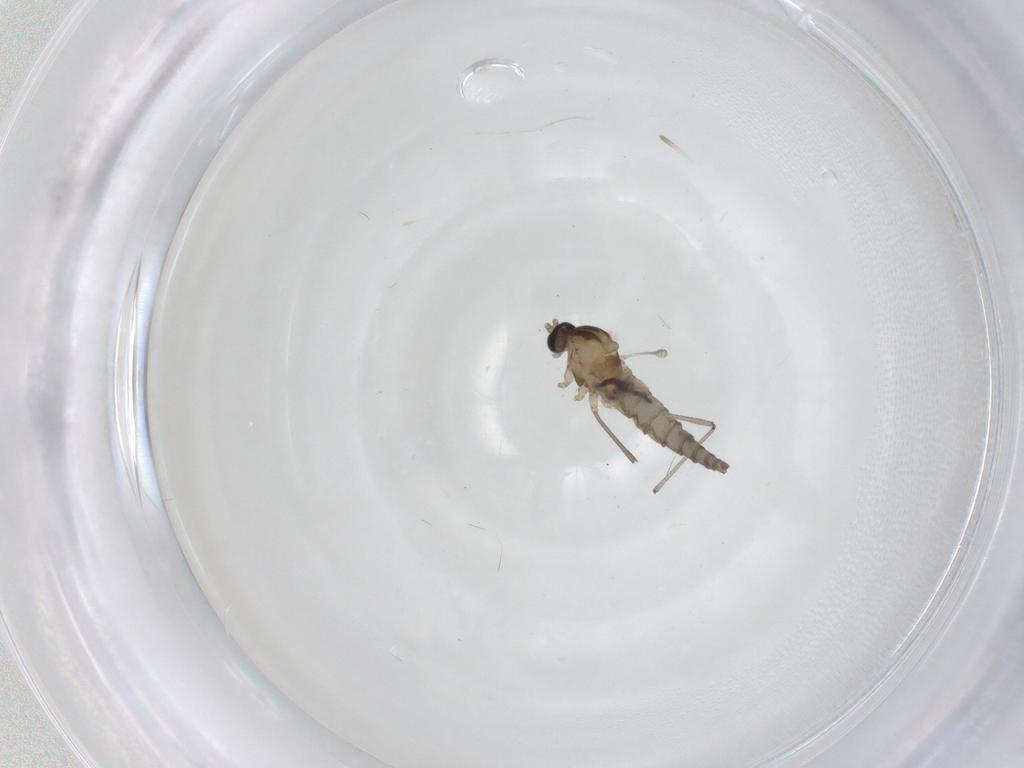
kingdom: Animalia
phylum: Arthropoda
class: Insecta
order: Diptera
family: Cecidomyiidae
